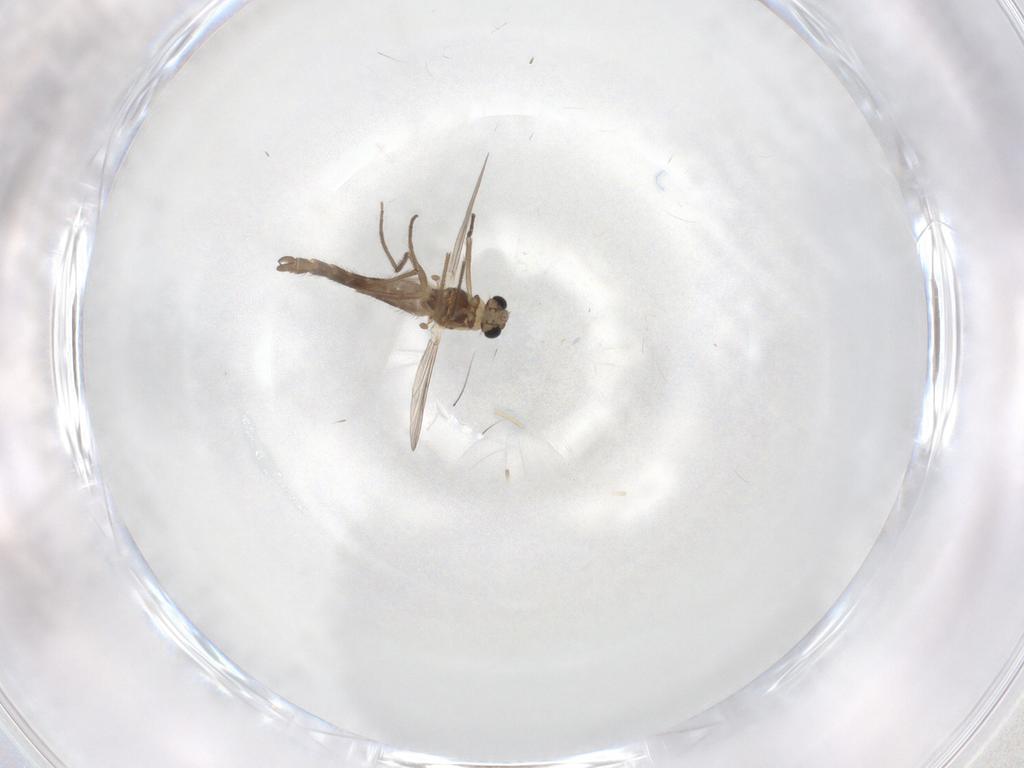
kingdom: Animalia
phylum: Arthropoda
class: Insecta
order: Diptera
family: Chironomidae
